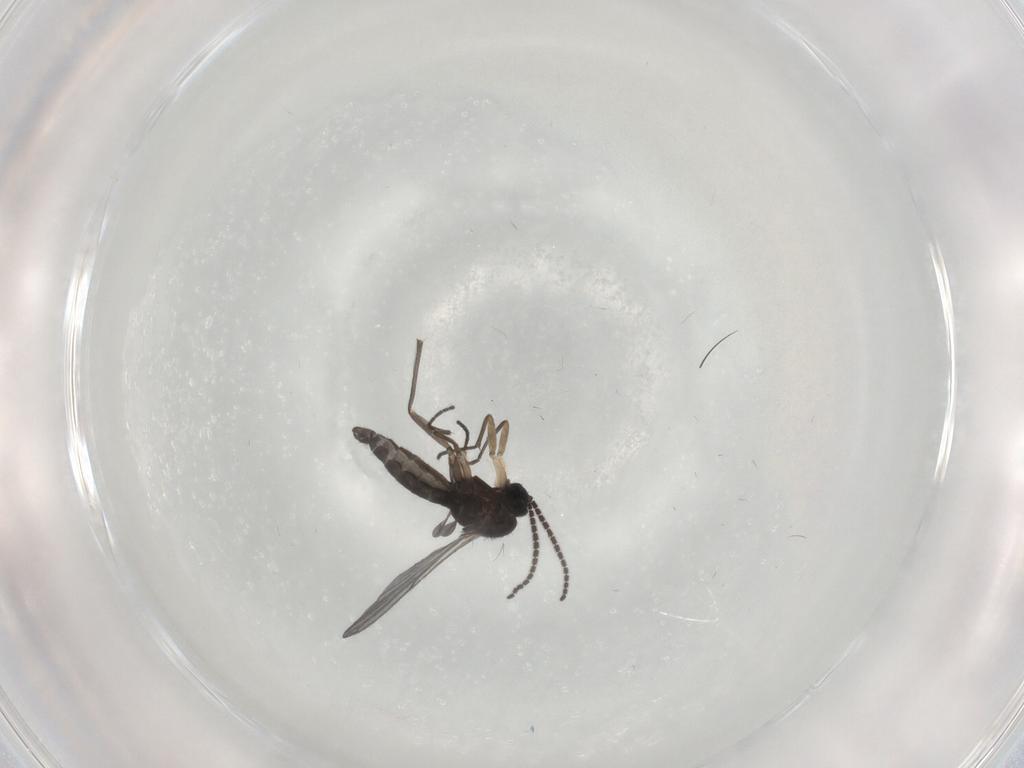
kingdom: Animalia
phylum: Arthropoda
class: Insecta
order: Diptera
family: Sciaridae
